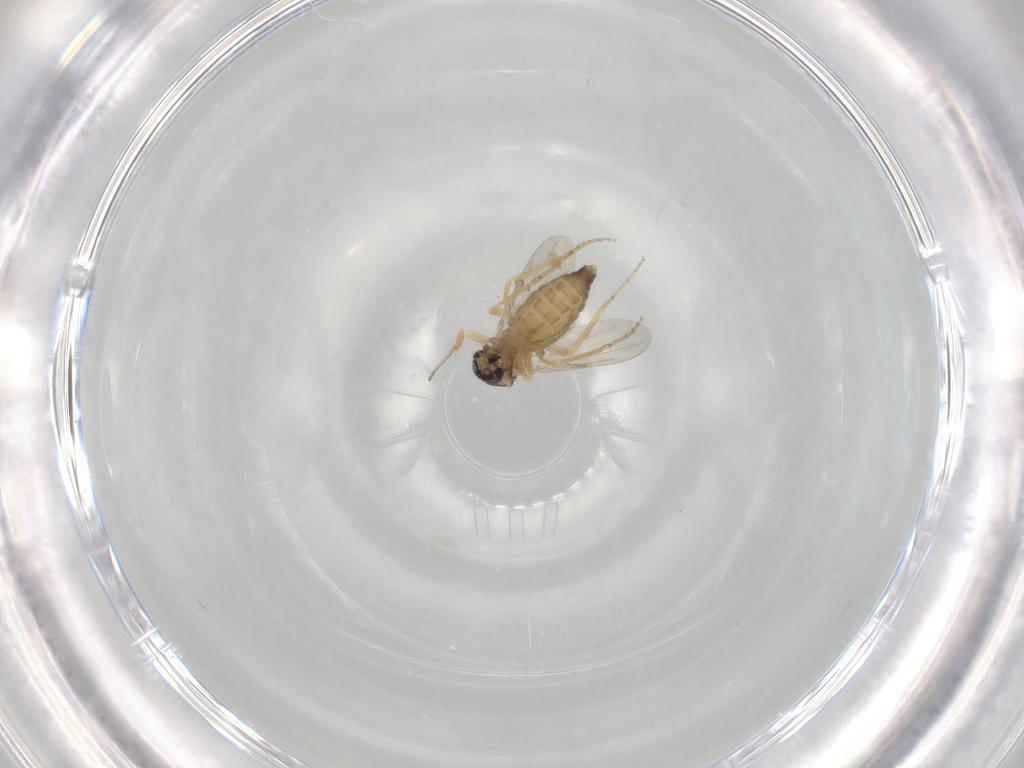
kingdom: Animalia
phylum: Arthropoda
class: Insecta
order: Diptera
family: Ceratopogonidae
